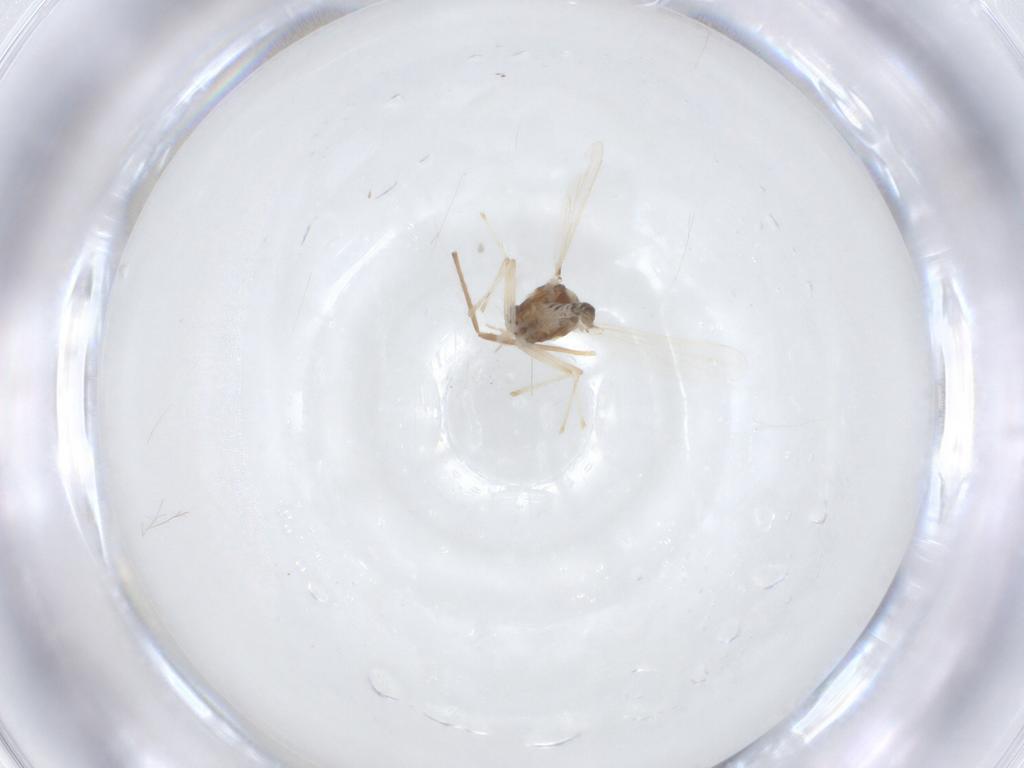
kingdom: Animalia
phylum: Arthropoda
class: Insecta
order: Diptera
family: Chironomidae
